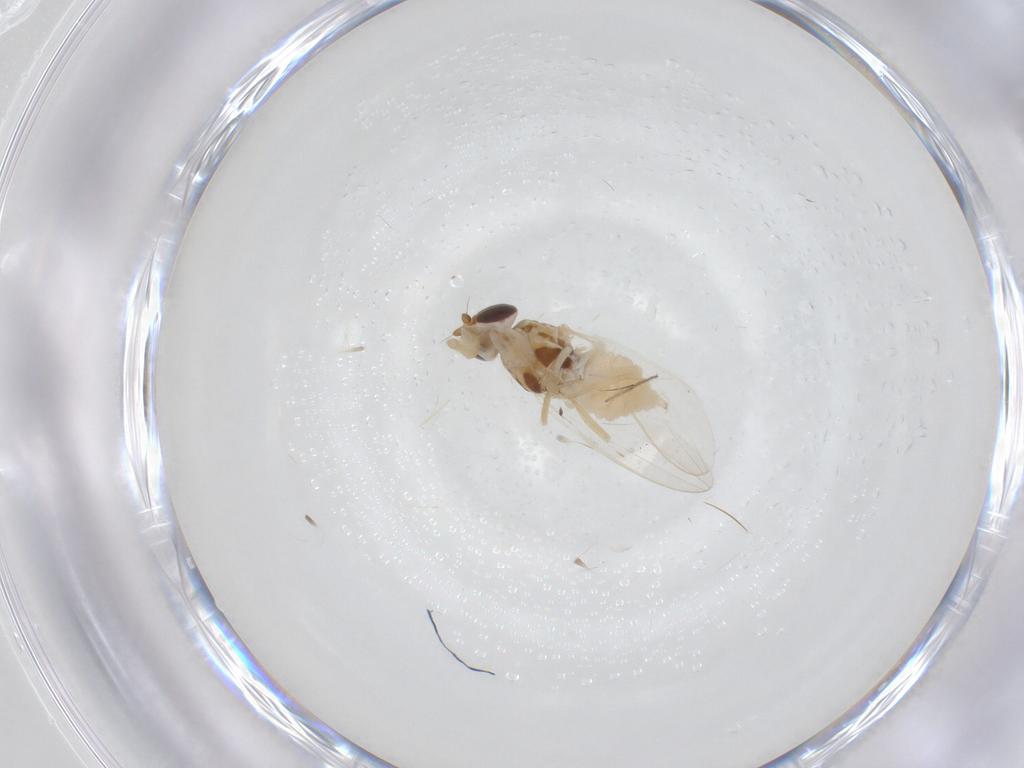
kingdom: Animalia
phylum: Arthropoda
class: Insecta
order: Diptera
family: Chloropidae
